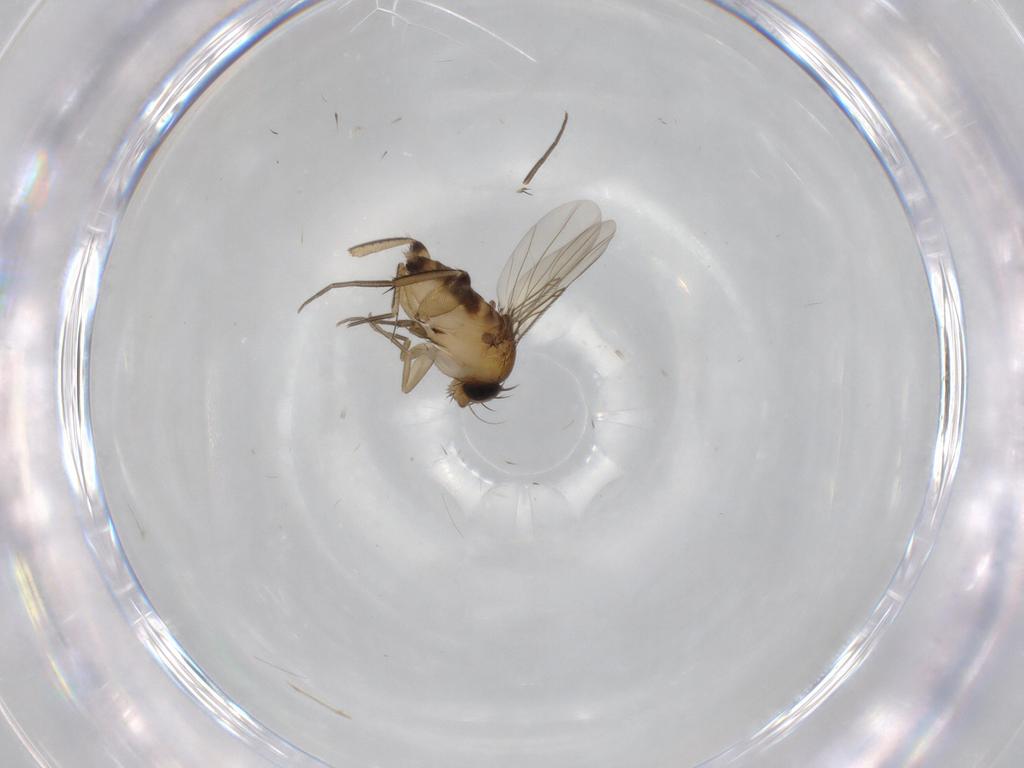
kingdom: Animalia
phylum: Arthropoda
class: Insecta
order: Diptera
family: Phoridae
